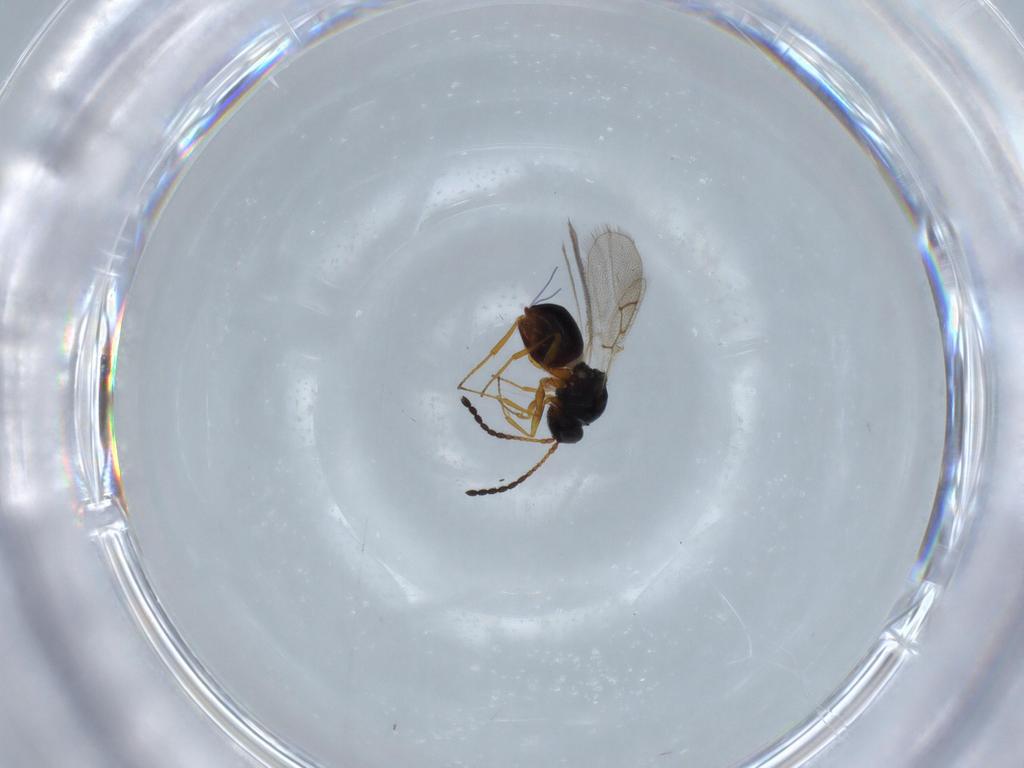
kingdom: Animalia
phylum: Arthropoda
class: Insecta
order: Hymenoptera
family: Figitidae
